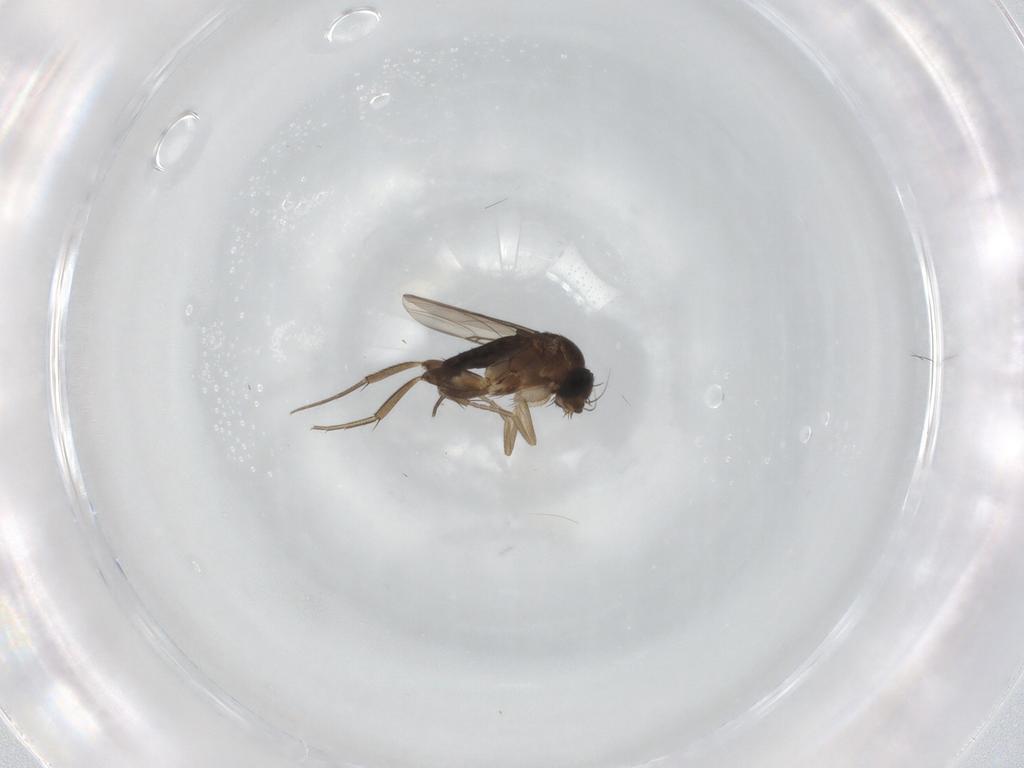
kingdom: Animalia
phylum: Arthropoda
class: Insecta
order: Diptera
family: Phoridae
